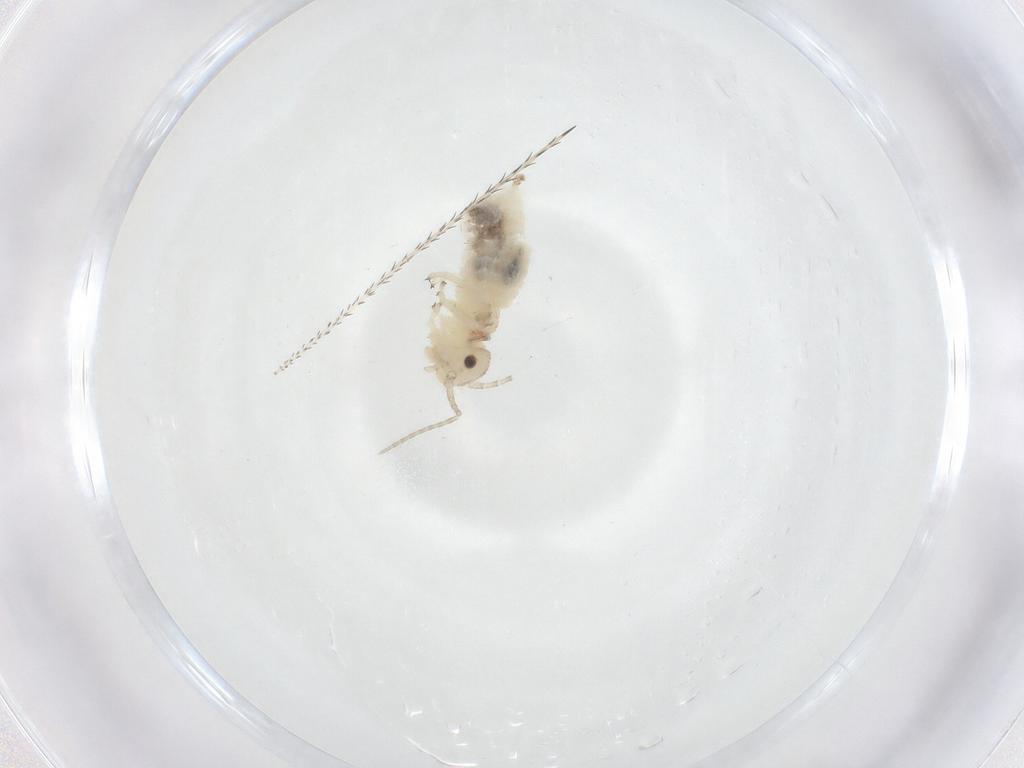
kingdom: Animalia
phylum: Arthropoda
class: Insecta
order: Psocodea
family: Amphipsocidae
